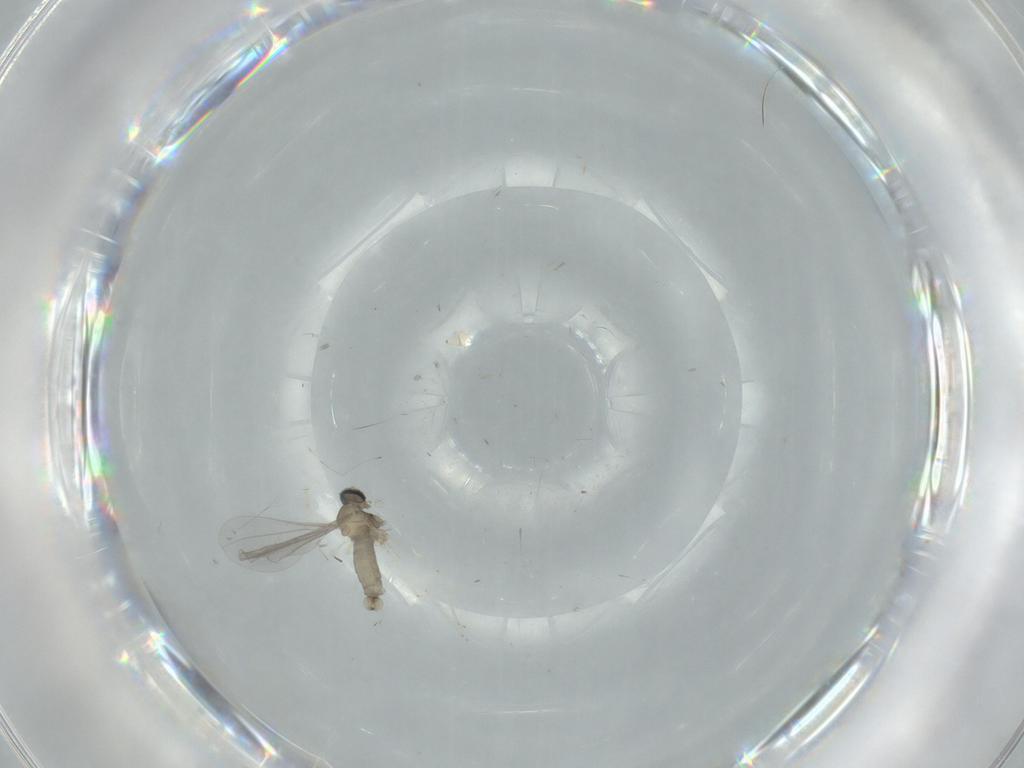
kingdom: Animalia
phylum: Arthropoda
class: Insecta
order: Diptera
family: Cecidomyiidae
